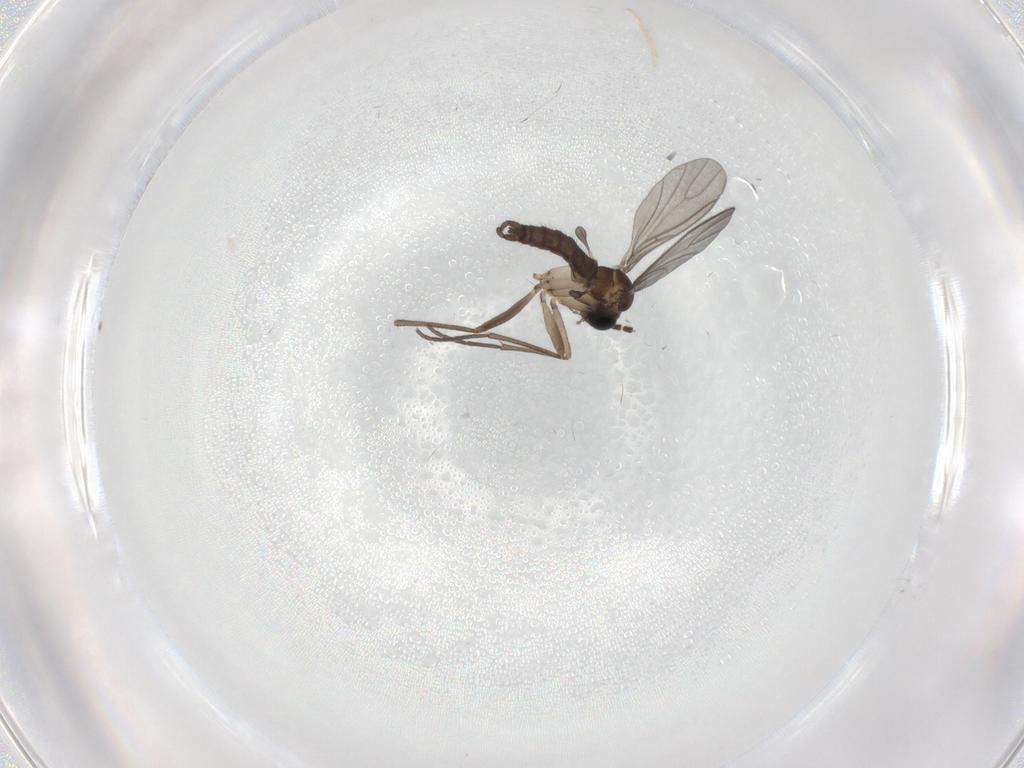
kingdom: Animalia
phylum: Arthropoda
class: Insecta
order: Diptera
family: Sciaridae
